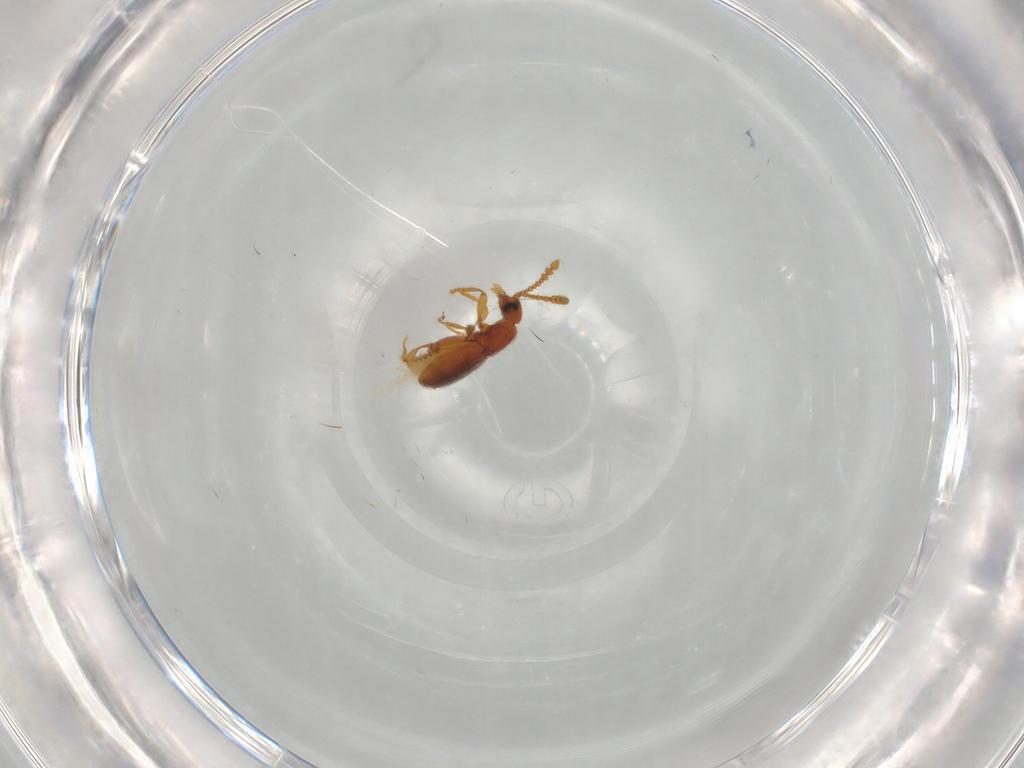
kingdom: Animalia
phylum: Arthropoda
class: Insecta
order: Coleoptera
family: Staphylinidae
